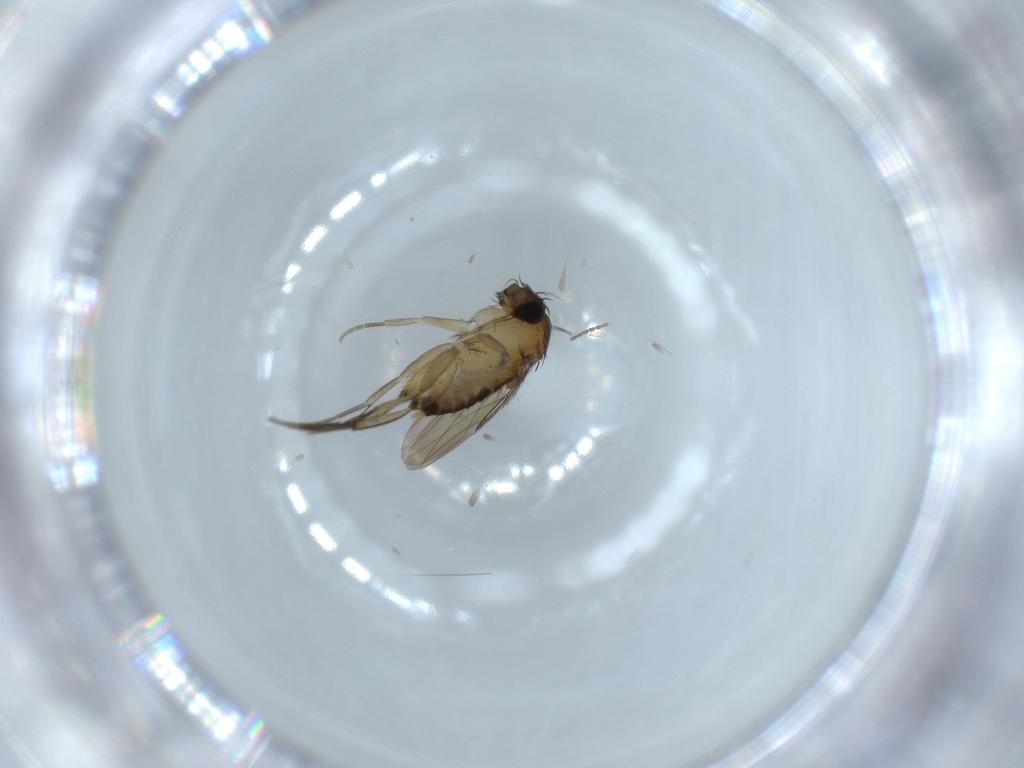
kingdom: Animalia
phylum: Arthropoda
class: Insecta
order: Diptera
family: Phoridae
